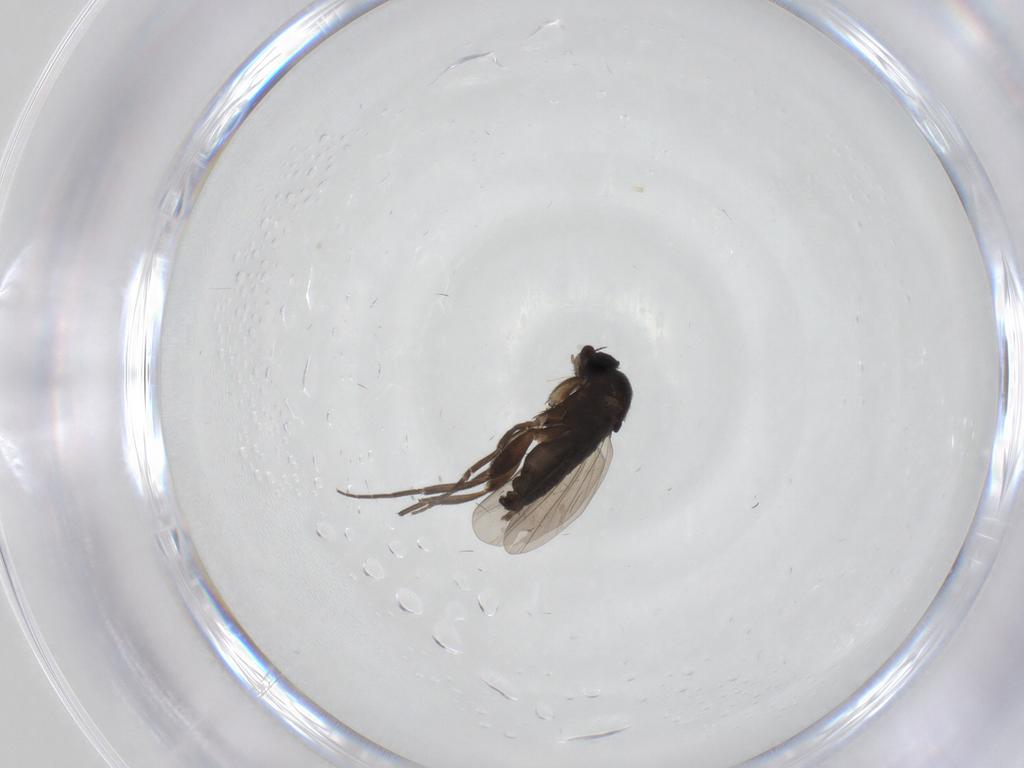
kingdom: Animalia
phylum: Arthropoda
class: Insecta
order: Diptera
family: Phoridae
